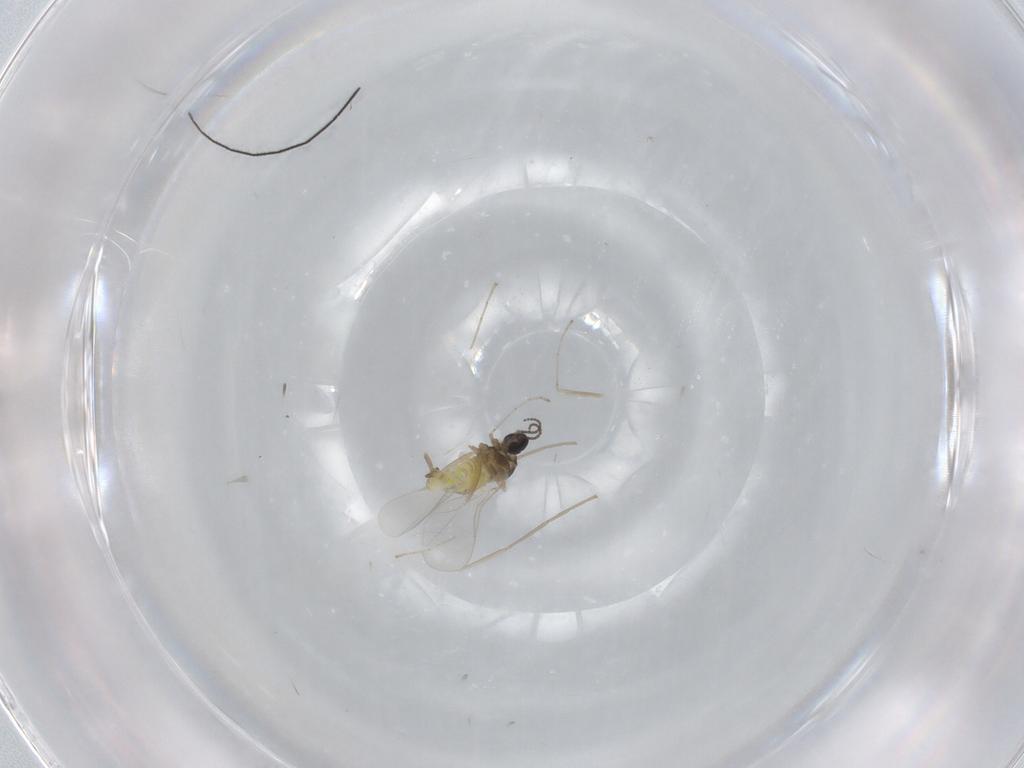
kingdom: Animalia
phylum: Arthropoda
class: Insecta
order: Diptera
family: Cecidomyiidae
